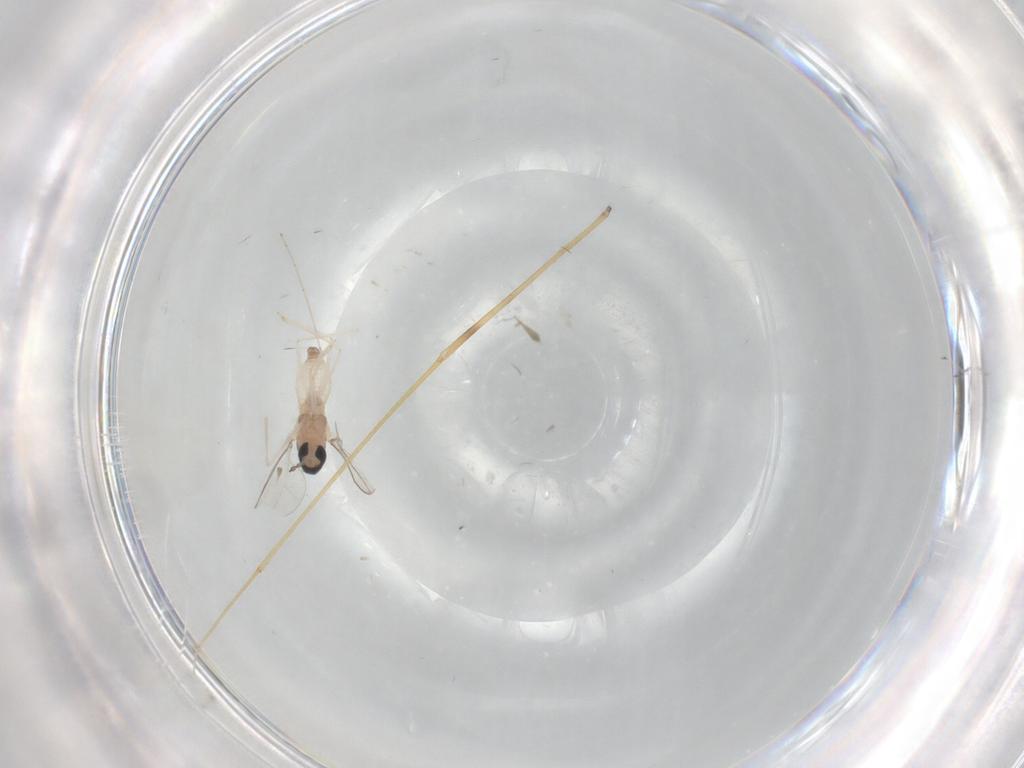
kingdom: Animalia
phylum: Arthropoda
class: Insecta
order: Diptera
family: Cecidomyiidae
